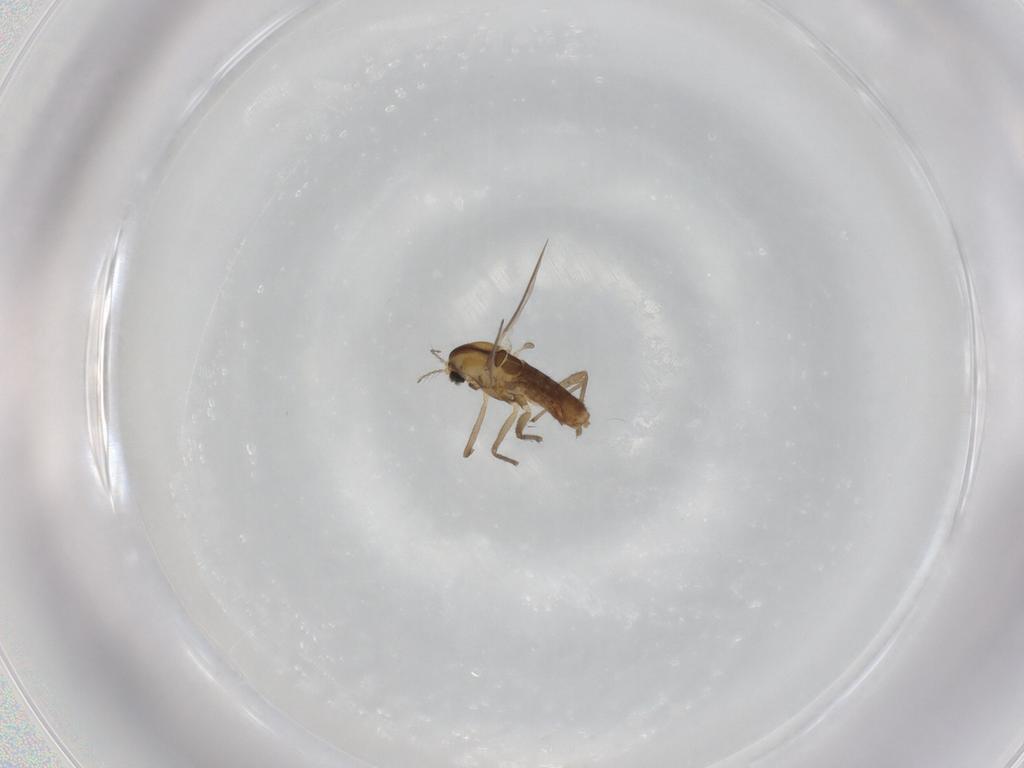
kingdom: Animalia
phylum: Arthropoda
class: Insecta
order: Diptera
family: Chironomidae
